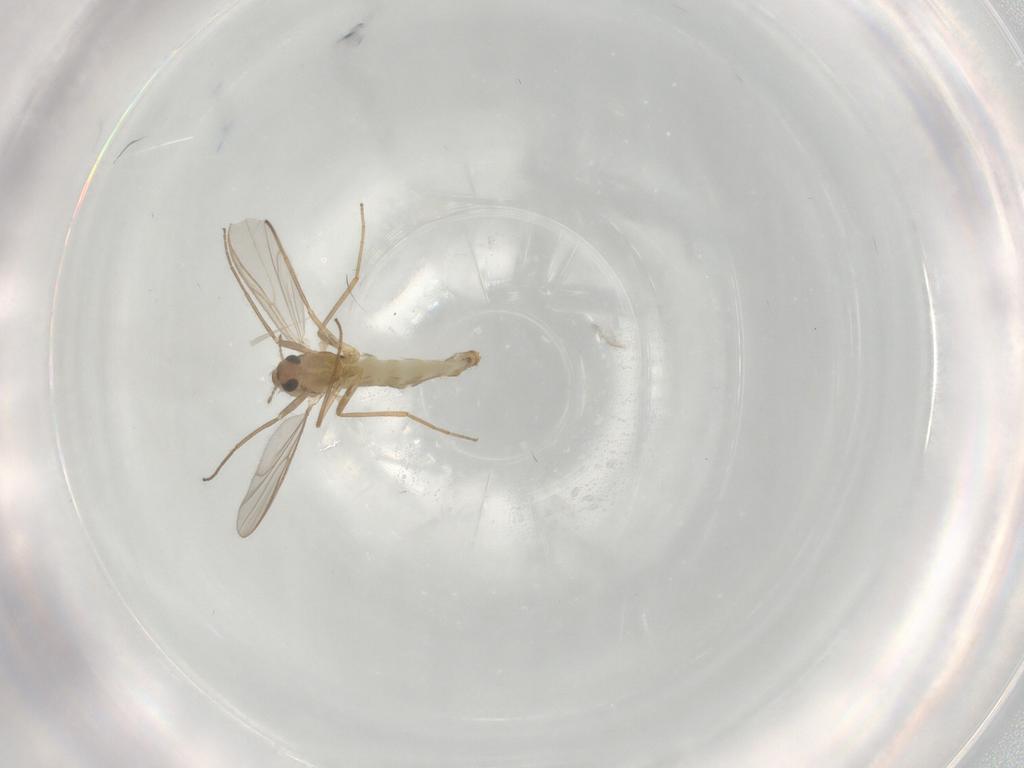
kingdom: Animalia
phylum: Arthropoda
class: Insecta
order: Diptera
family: Chironomidae
